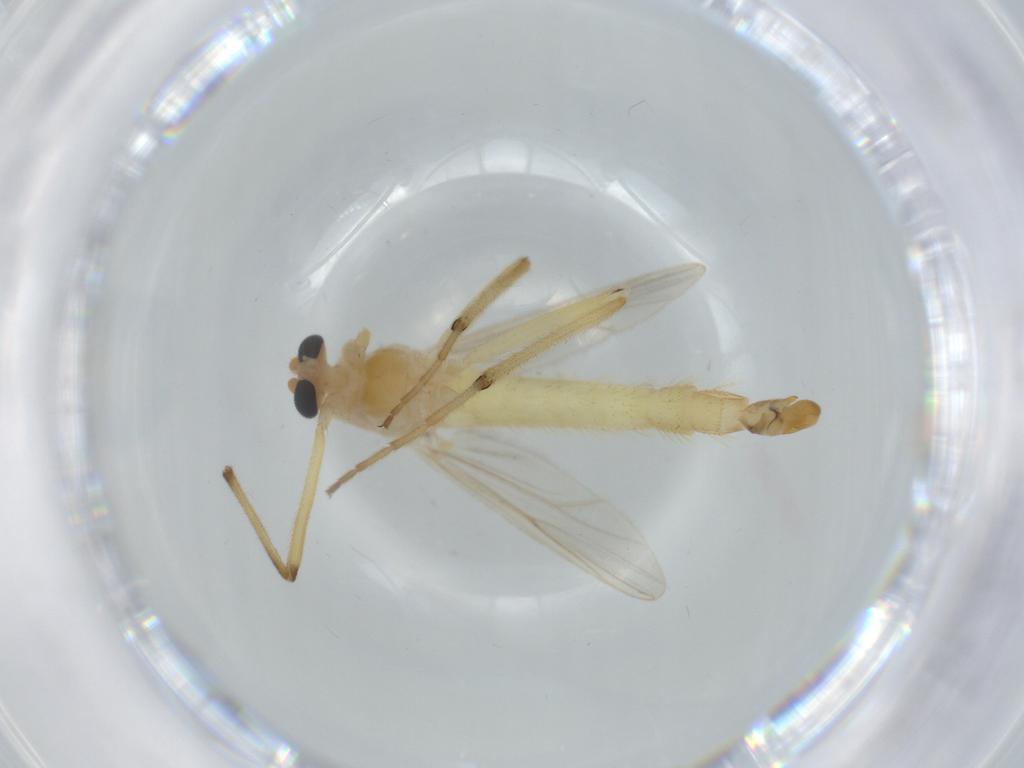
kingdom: Animalia
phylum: Arthropoda
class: Insecta
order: Diptera
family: Sciaridae
